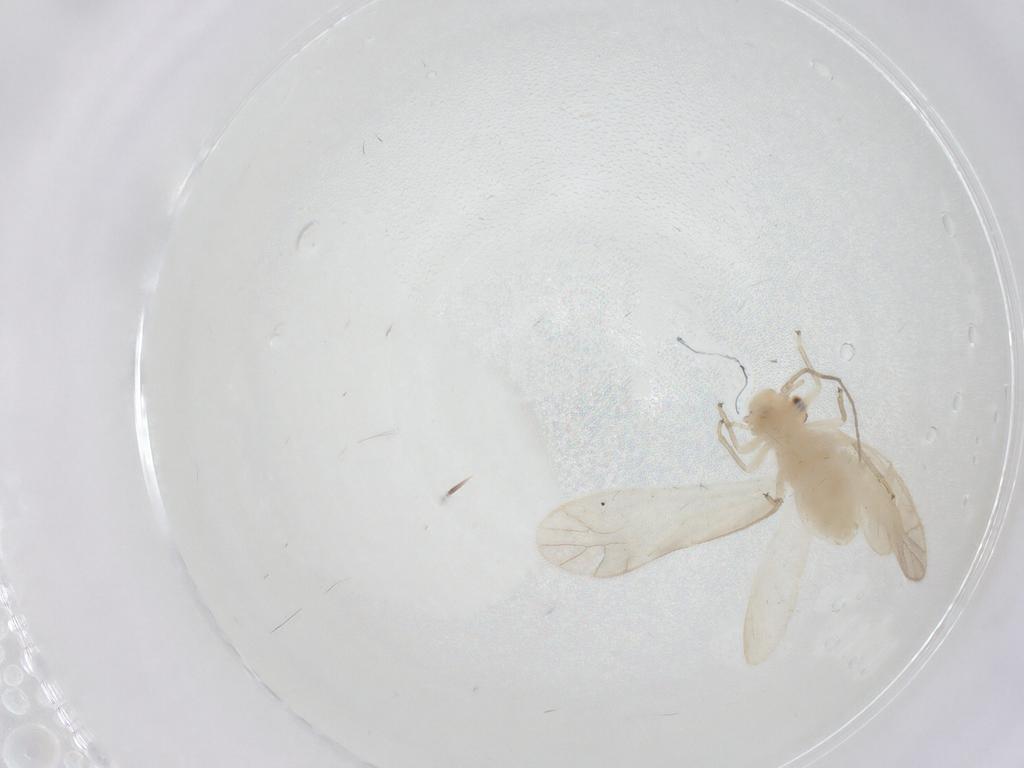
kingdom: Animalia
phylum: Arthropoda
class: Insecta
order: Psocodea
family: Caeciliusidae
